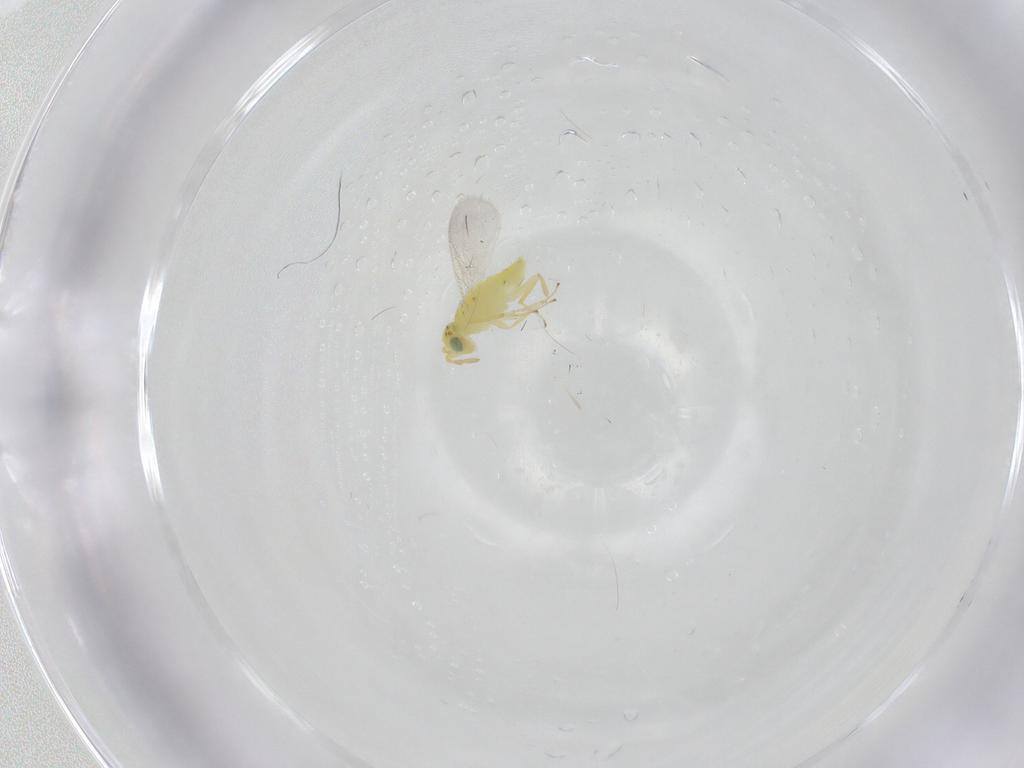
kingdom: Animalia
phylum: Arthropoda
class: Insecta
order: Hymenoptera
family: Aphelinidae
